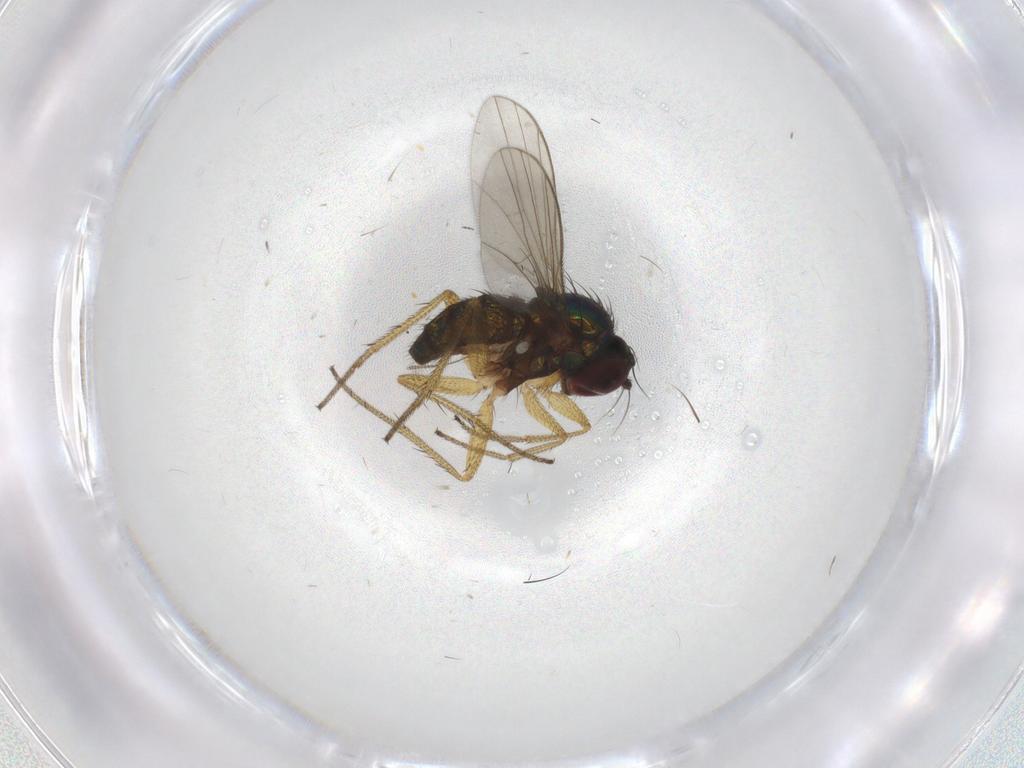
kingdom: Animalia
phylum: Arthropoda
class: Insecta
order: Diptera
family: Dolichopodidae
